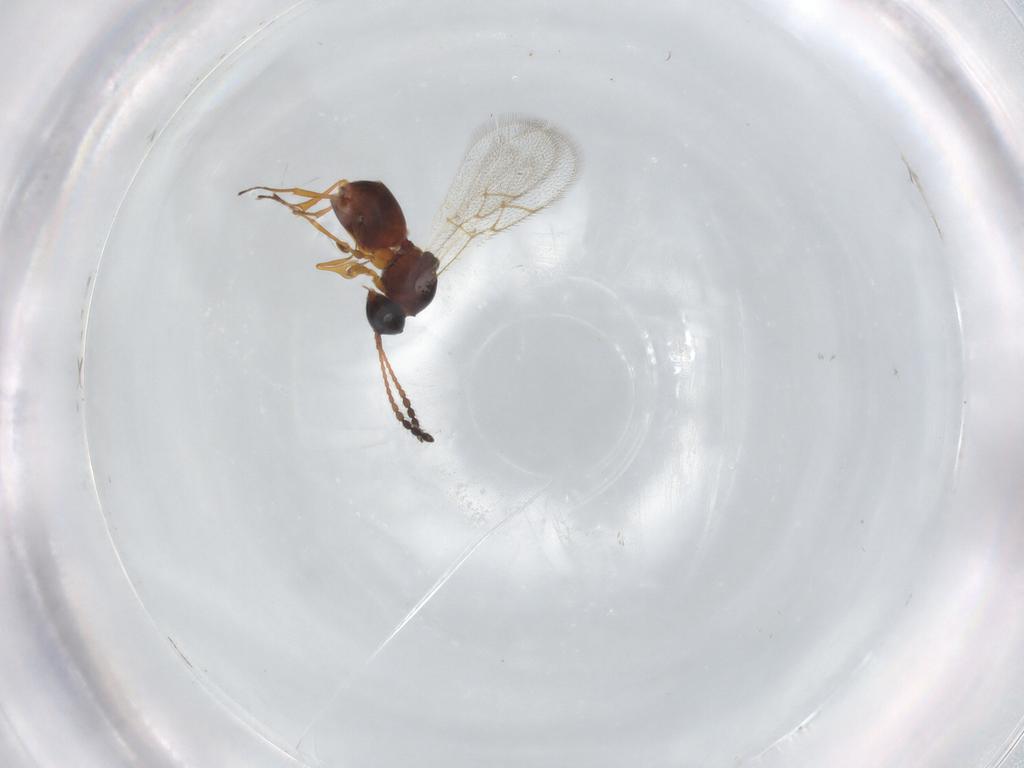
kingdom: Animalia
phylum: Arthropoda
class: Insecta
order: Hymenoptera
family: Figitidae
